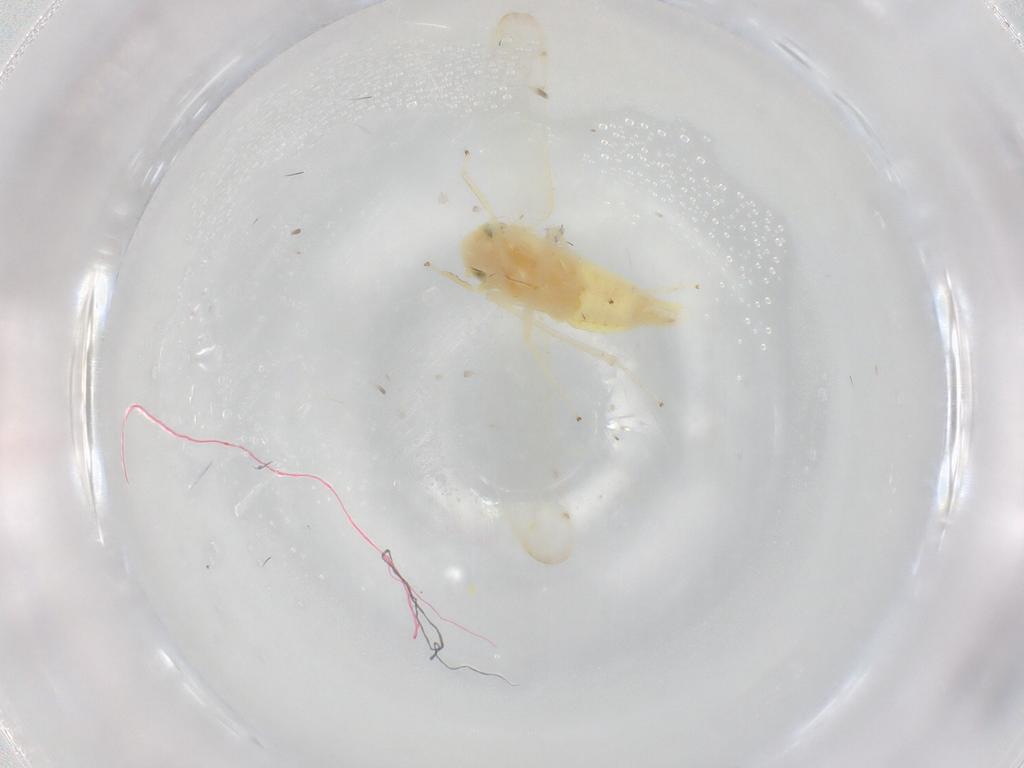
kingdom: Animalia
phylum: Arthropoda
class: Insecta
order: Hemiptera
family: Cicadellidae
